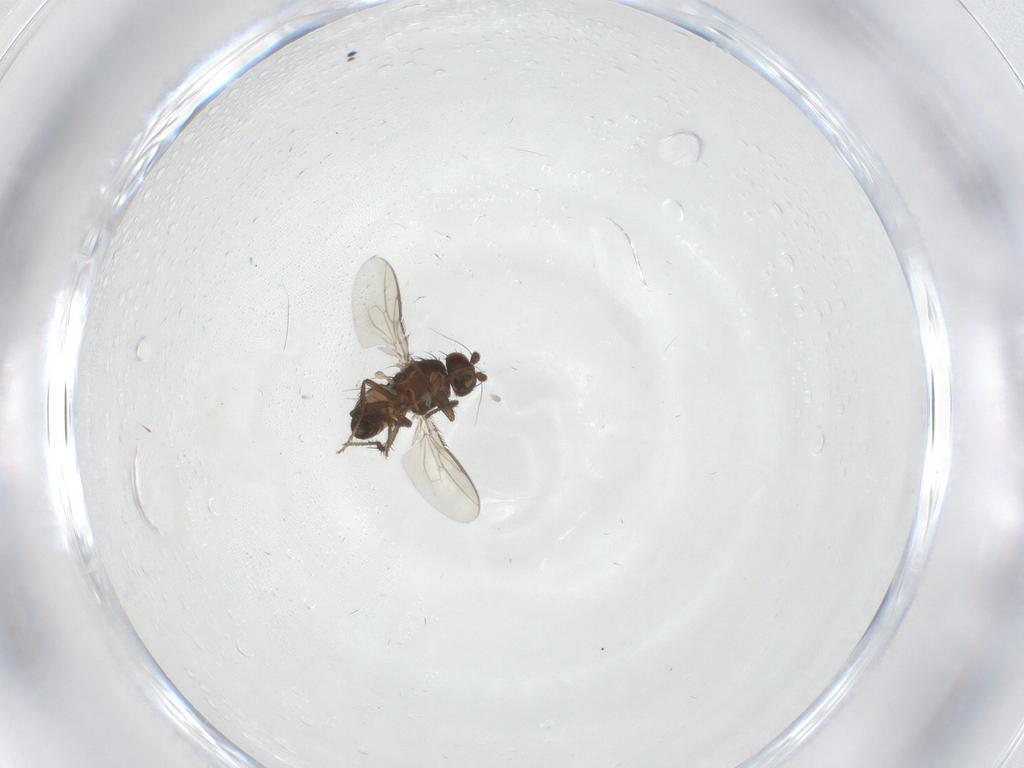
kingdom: Animalia
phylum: Arthropoda
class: Insecta
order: Diptera
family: Sphaeroceridae
